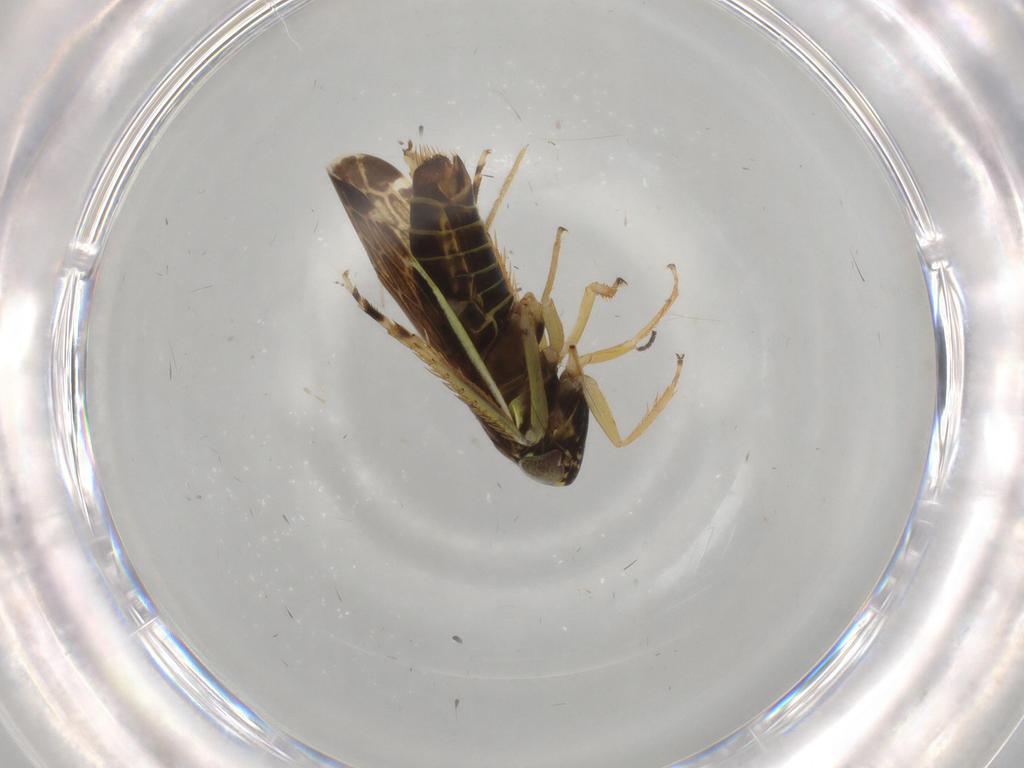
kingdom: Animalia
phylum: Arthropoda
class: Insecta
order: Hemiptera
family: Cicadellidae
